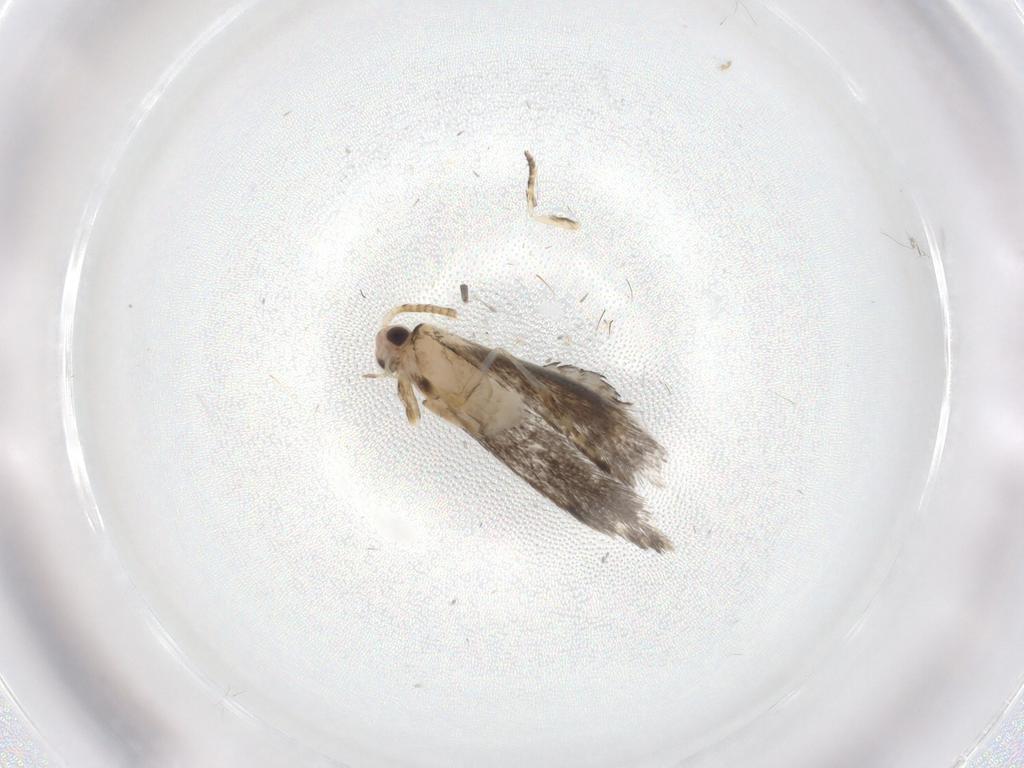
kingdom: Animalia
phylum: Arthropoda
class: Insecta
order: Lepidoptera
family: Tineidae
